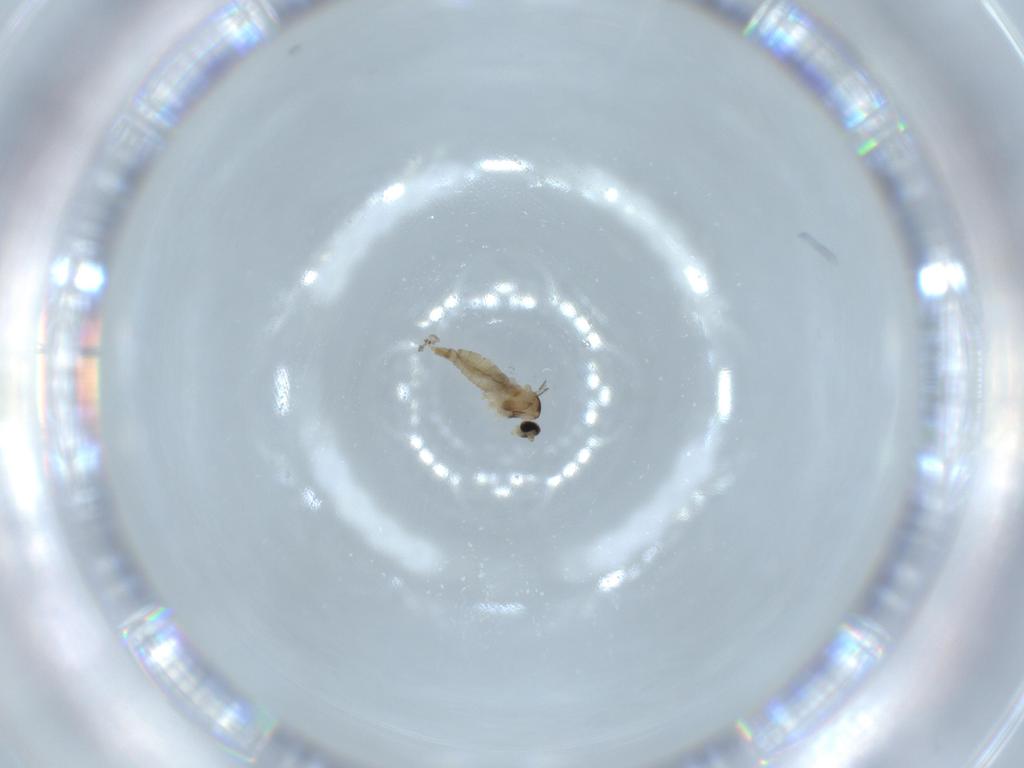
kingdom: Animalia
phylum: Arthropoda
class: Insecta
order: Diptera
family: Chironomidae
